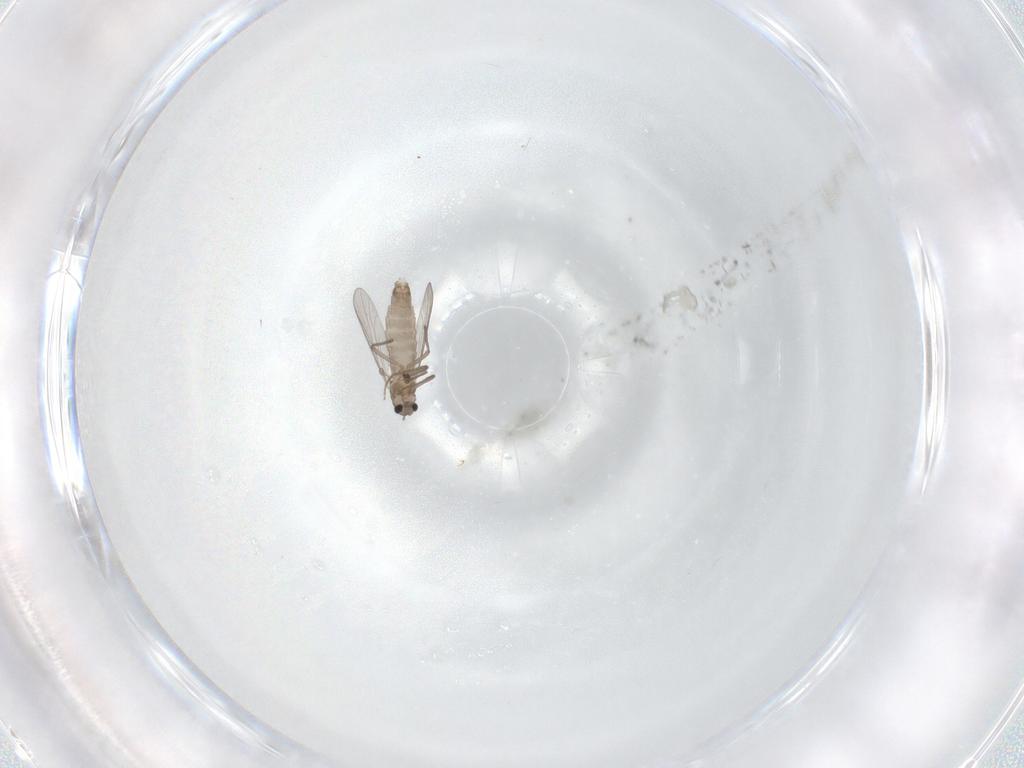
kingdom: Animalia
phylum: Arthropoda
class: Insecta
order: Diptera
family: Chironomidae
